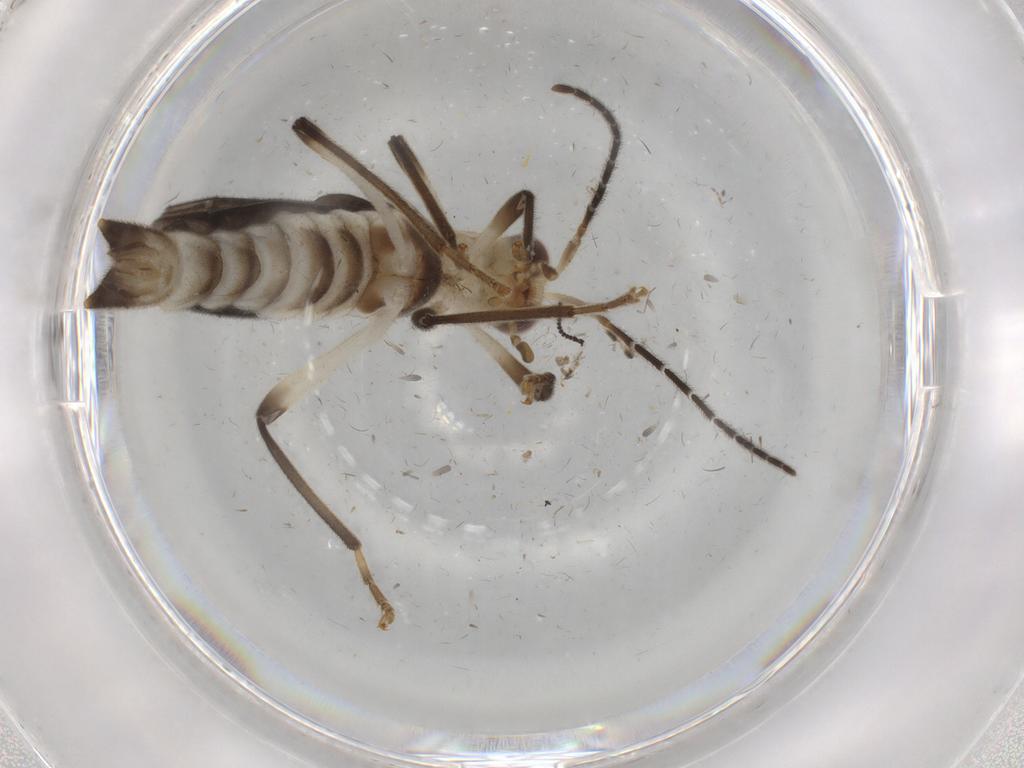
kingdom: Animalia
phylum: Arthropoda
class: Insecta
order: Coleoptera
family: Cantharidae
